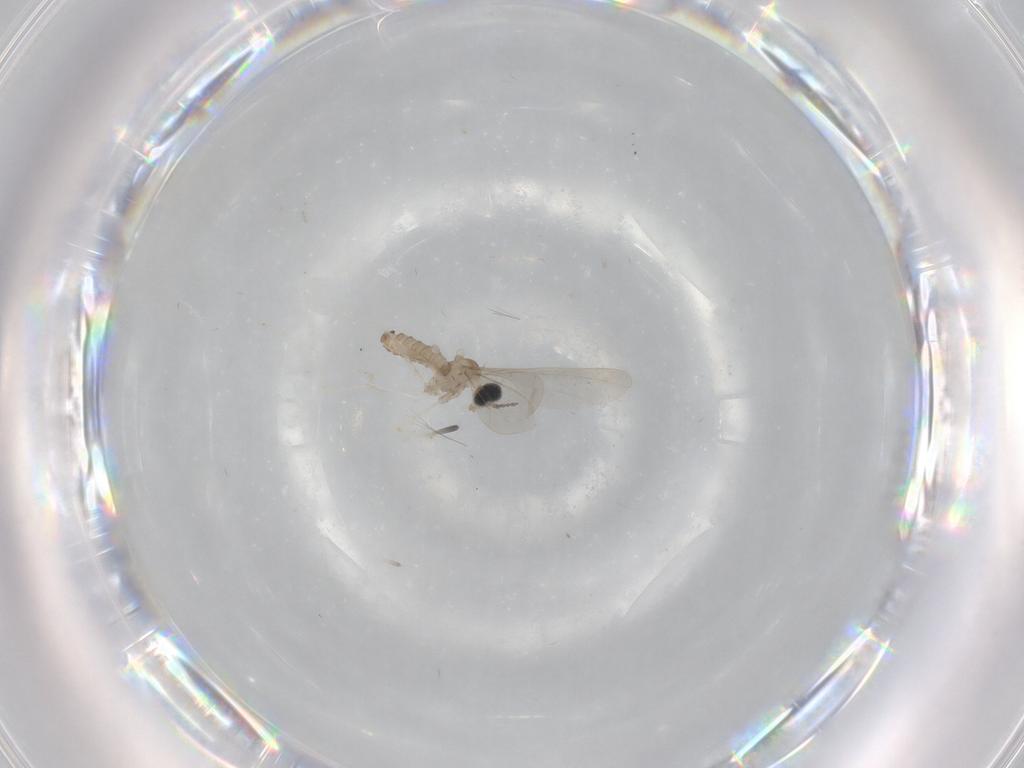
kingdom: Animalia
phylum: Arthropoda
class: Insecta
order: Diptera
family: Cecidomyiidae
